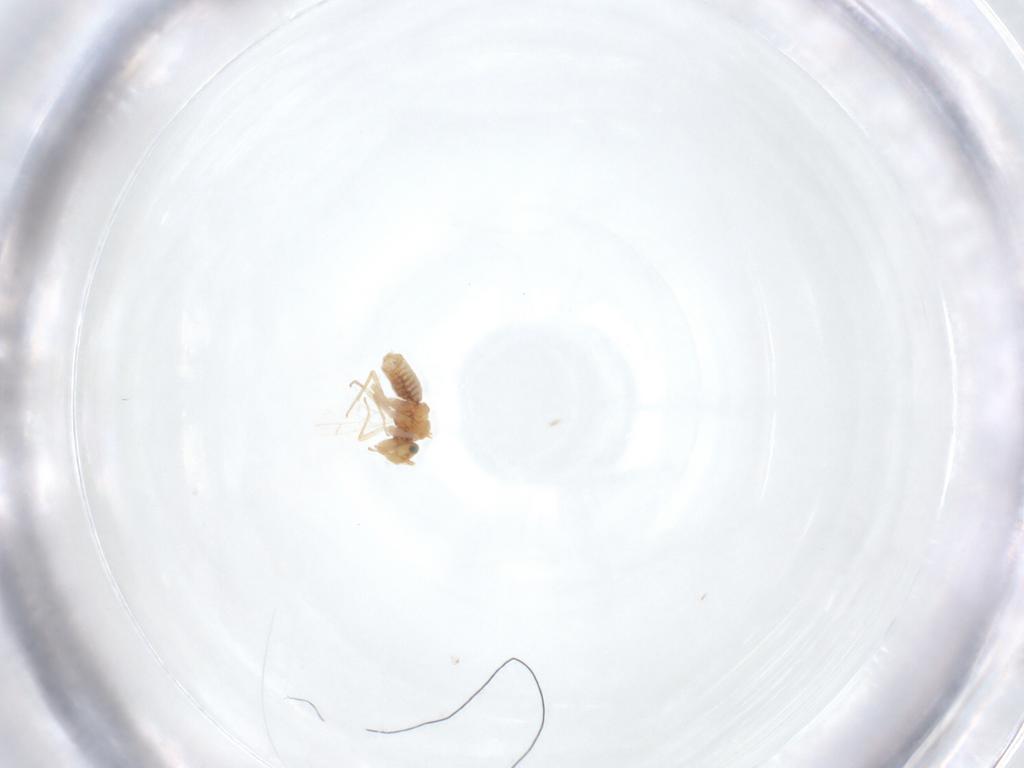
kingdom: Animalia
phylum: Arthropoda
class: Insecta
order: Psocodea
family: Lachesillidae
